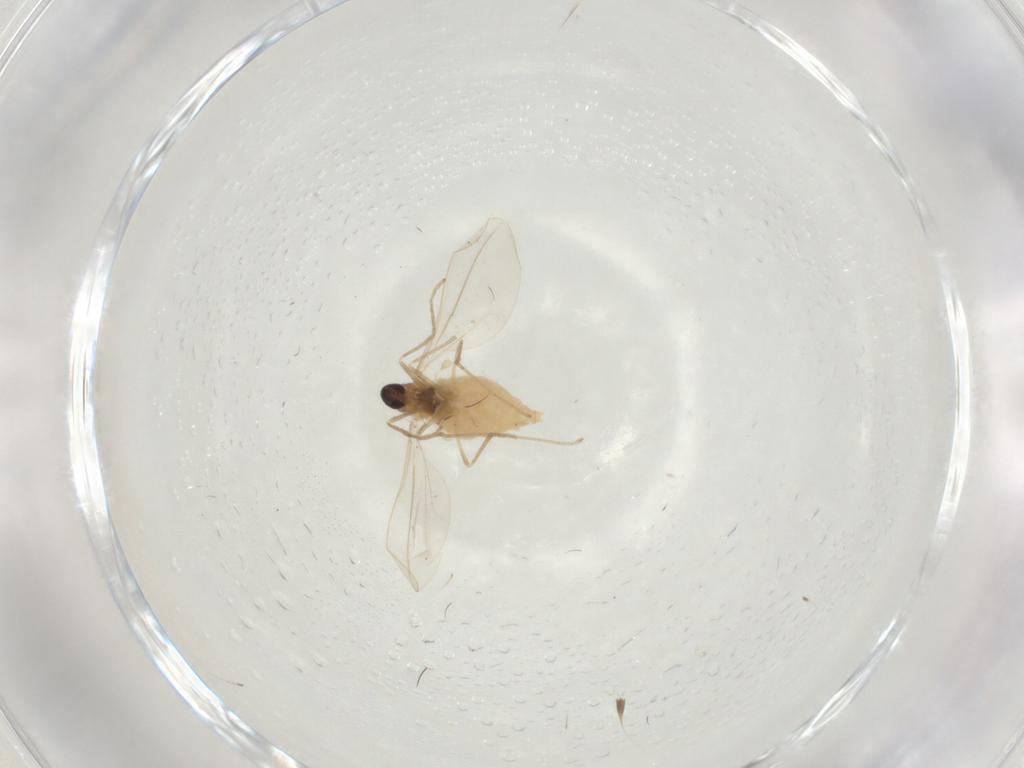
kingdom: Animalia
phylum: Arthropoda
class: Insecta
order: Diptera
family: Cecidomyiidae
